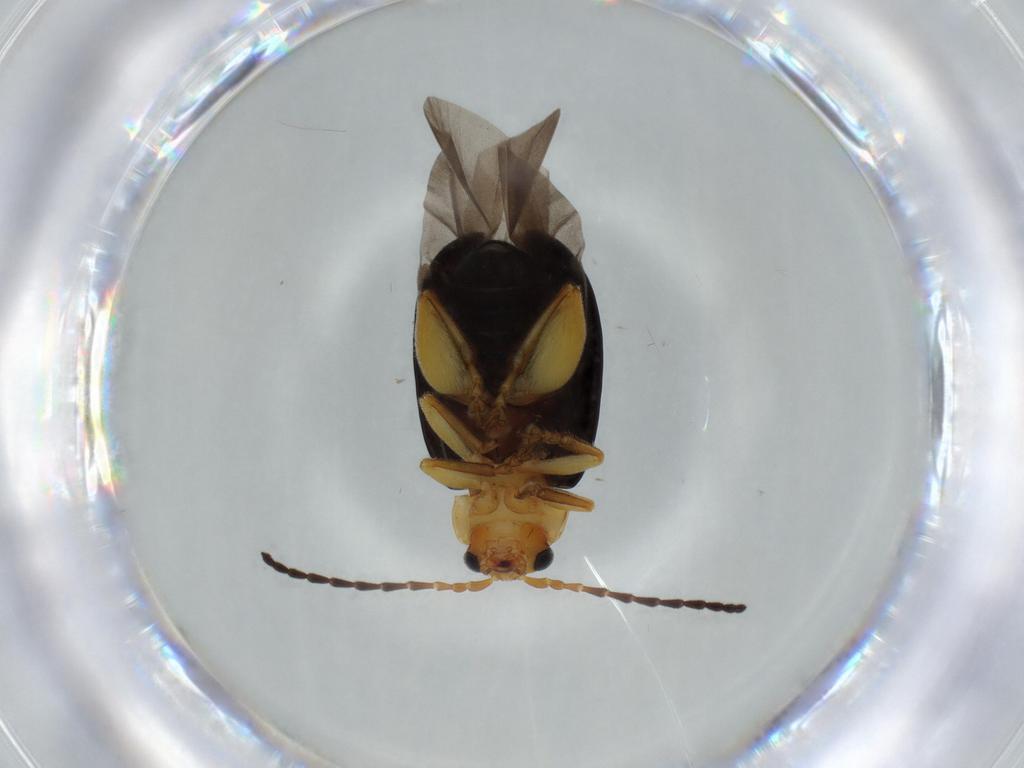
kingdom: Animalia
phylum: Arthropoda
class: Insecta
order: Coleoptera
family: Chrysomelidae
